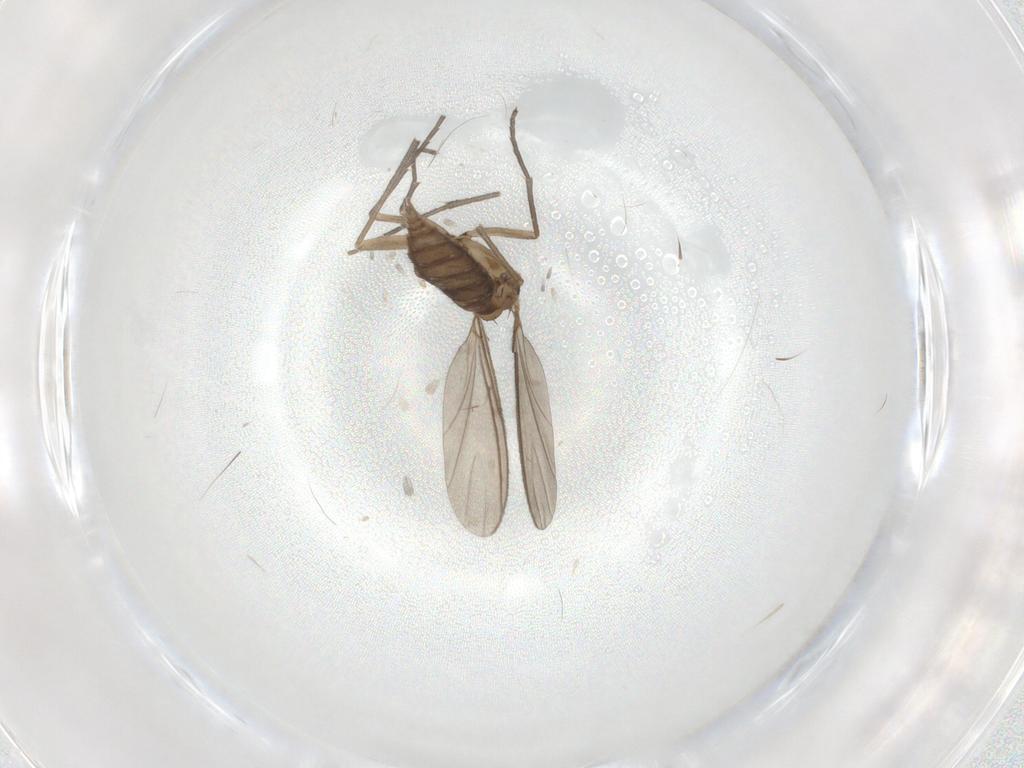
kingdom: Animalia
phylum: Arthropoda
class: Insecta
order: Diptera
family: Sciaridae
